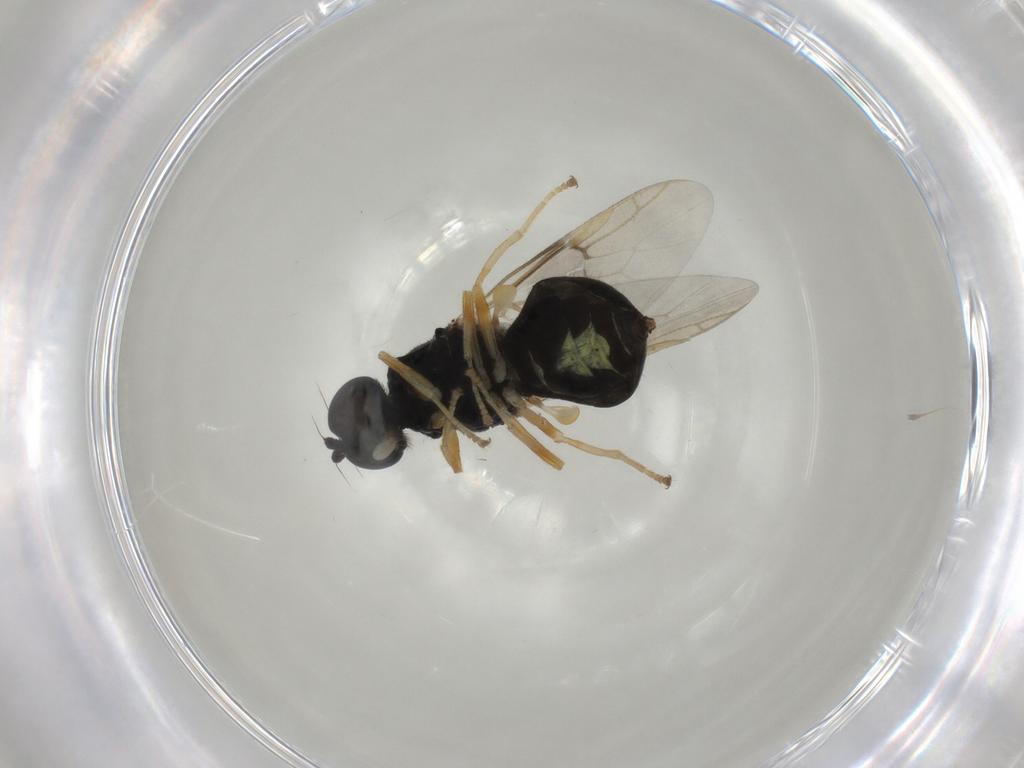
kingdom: Animalia
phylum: Arthropoda
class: Insecta
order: Diptera
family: Stratiomyidae
